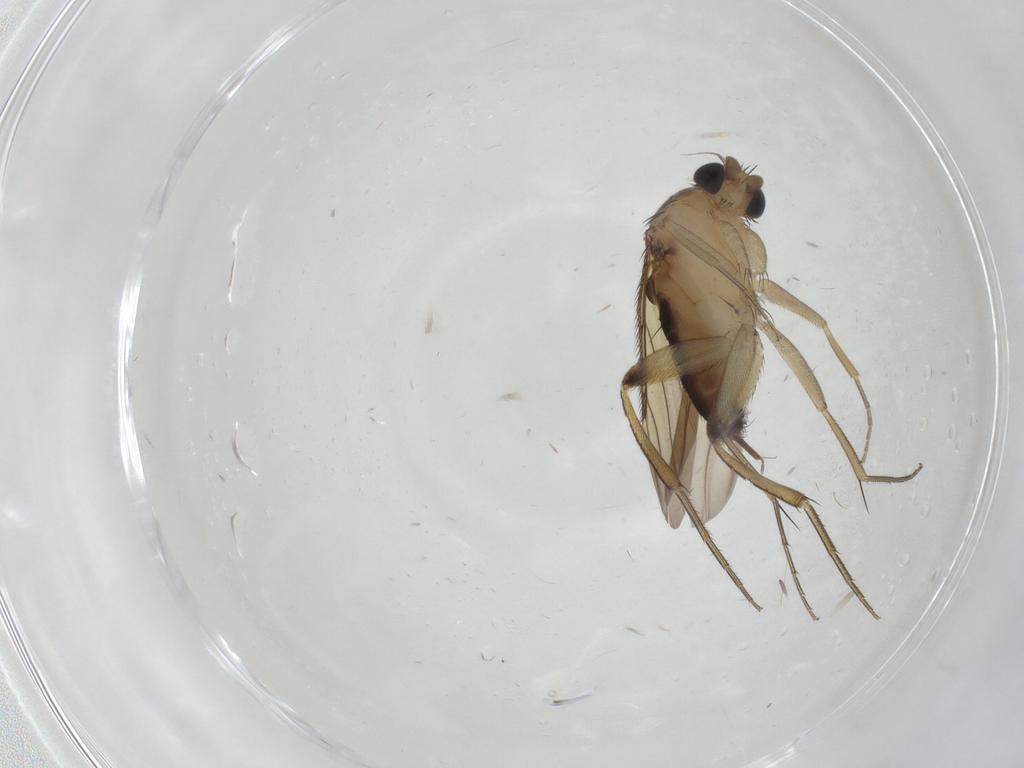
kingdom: Animalia
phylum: Arthropoda
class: Insecta
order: Diptera
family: Phoridae
